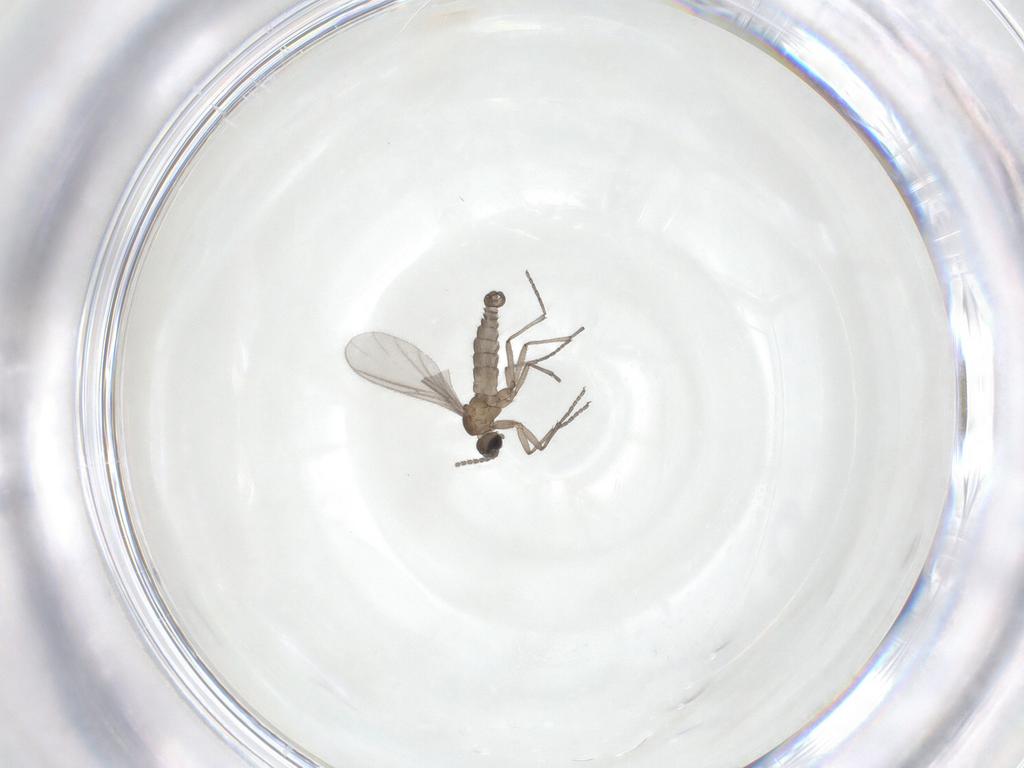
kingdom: Animalia
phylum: Arthropoda
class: Insecta
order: Diptera
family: Sciaridae
